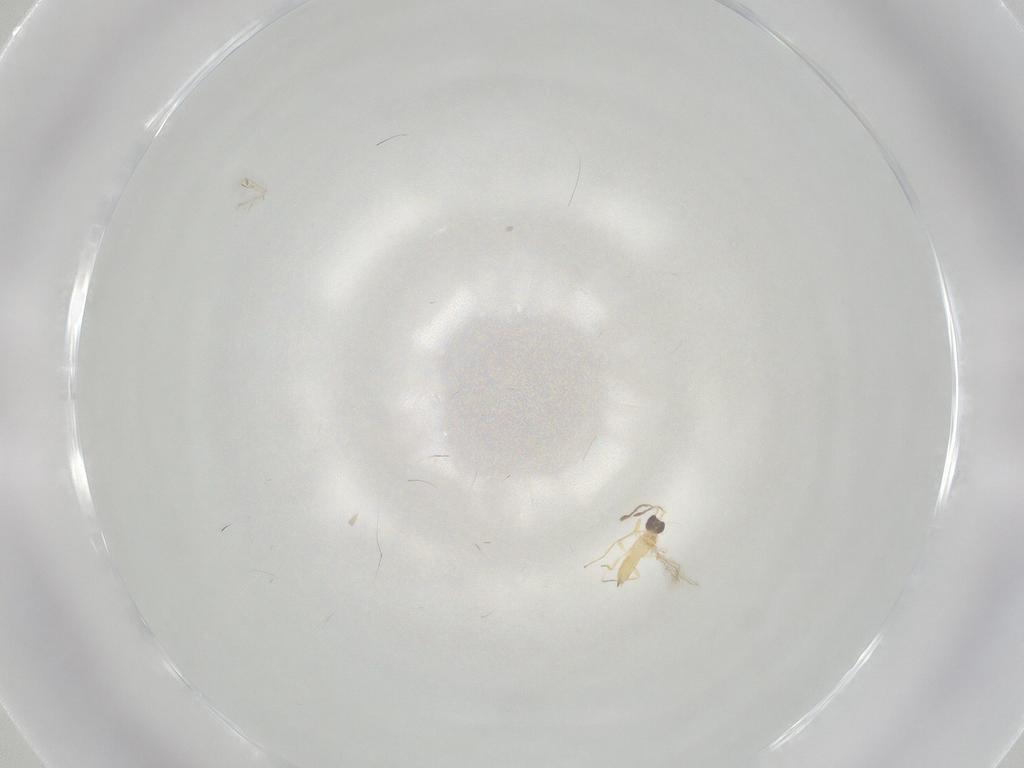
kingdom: Animalia
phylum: Arthropoda
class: Insecta
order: Hymenoptera
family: Mymaridae
